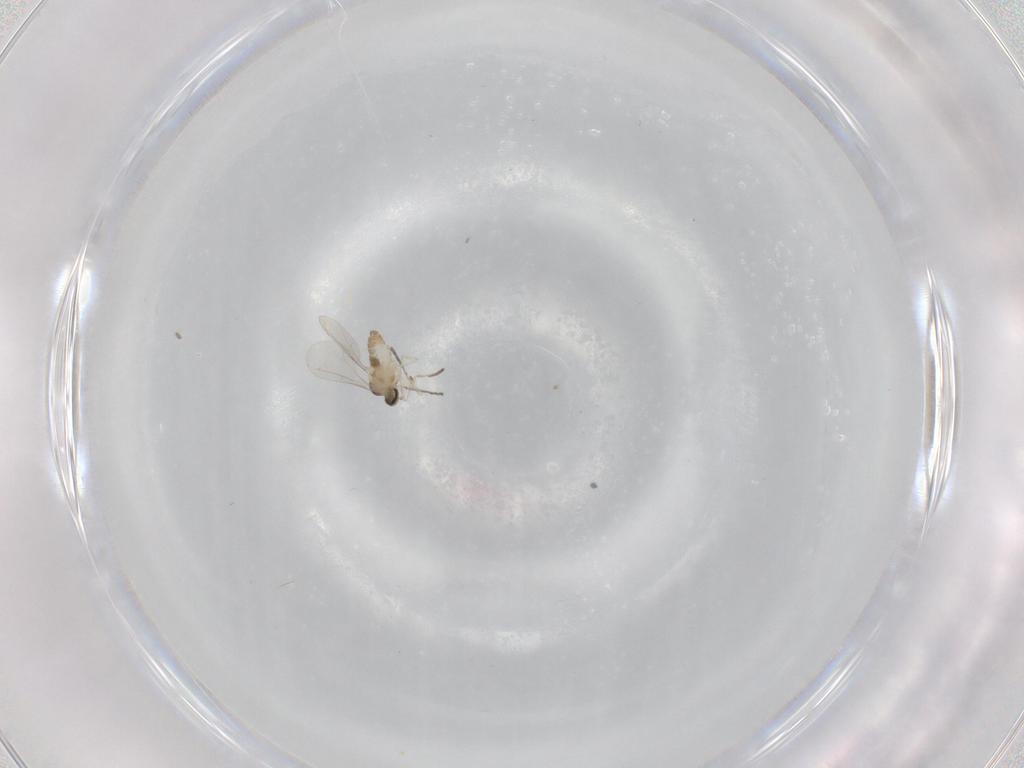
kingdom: Animalia
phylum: Arthropoda
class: Insecta
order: Diptera
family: Cecidomyiidae
